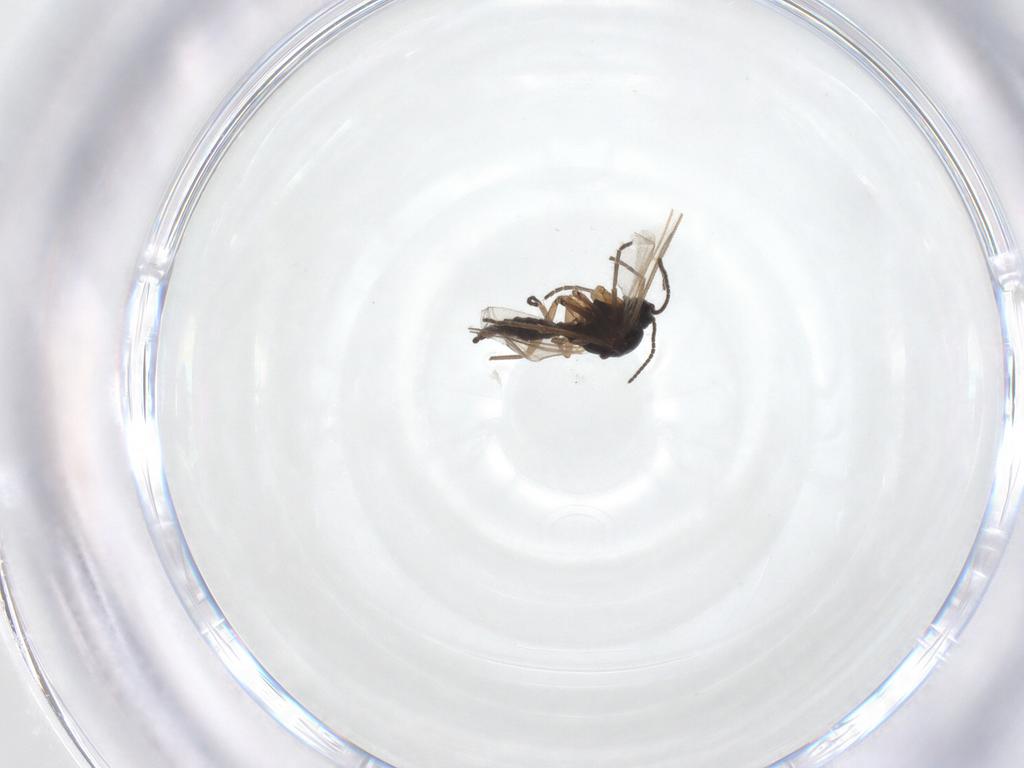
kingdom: Animalia
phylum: Arthropoda
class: Insecta
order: Diptera
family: Sciaridae
